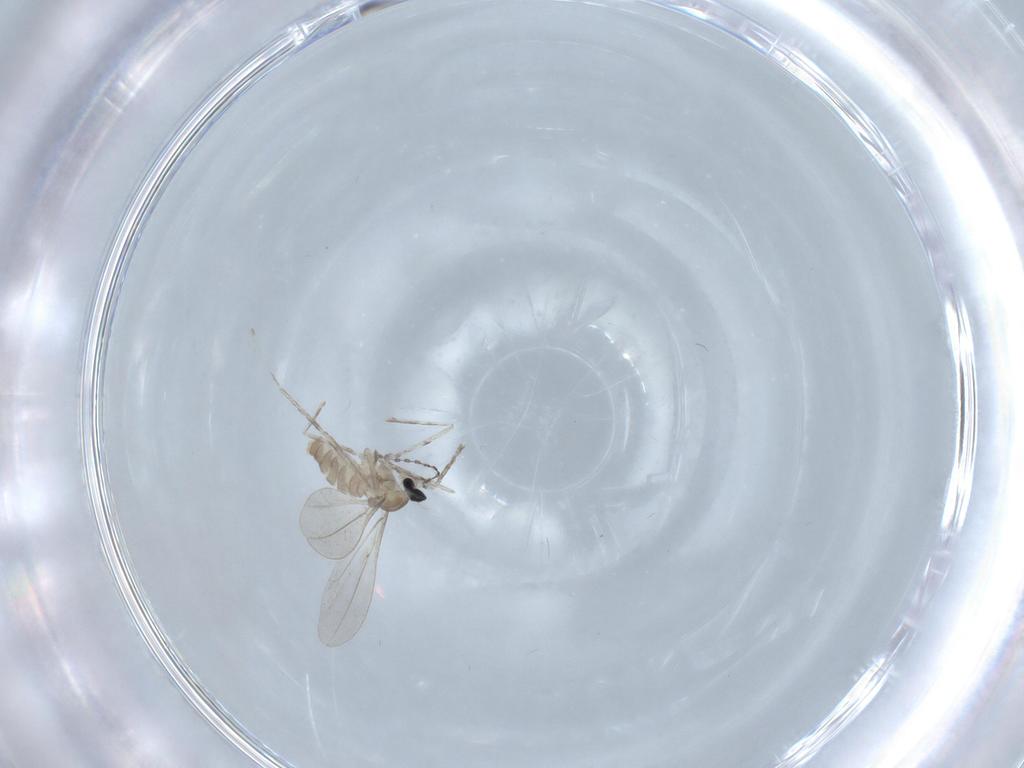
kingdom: Animalia
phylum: Arthropoda
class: Insecta
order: Diptera
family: Cecidomyiidae
